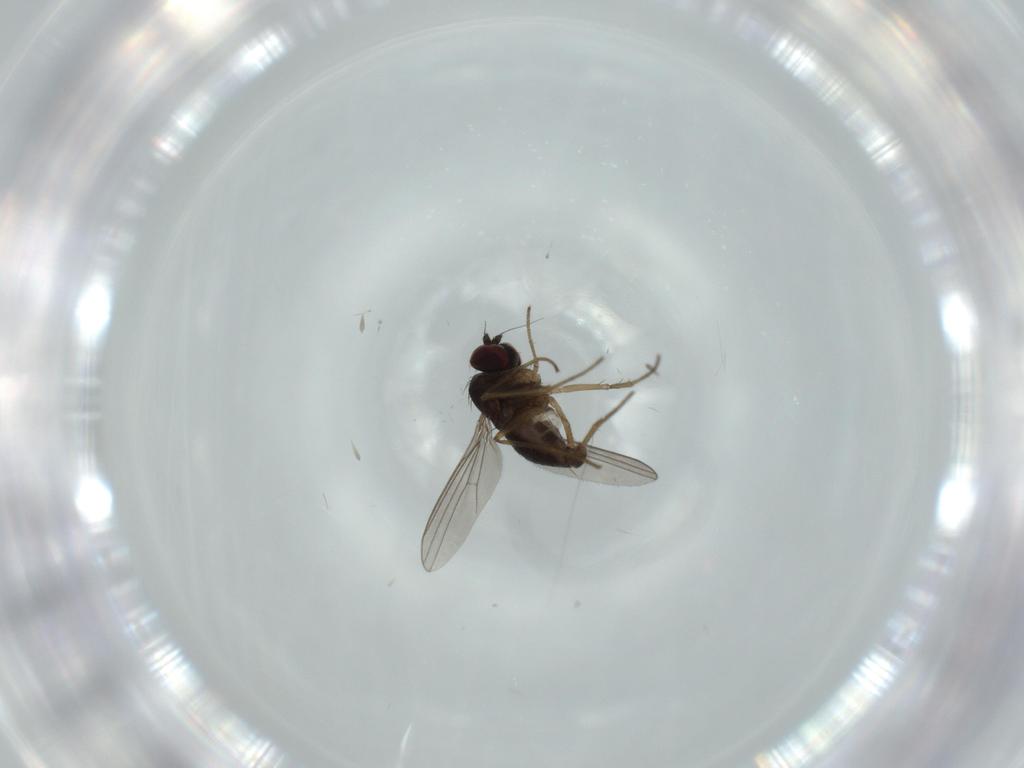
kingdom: Animalia
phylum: Arthropoda
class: Insecta
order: Diptera
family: Dolichopodidae
